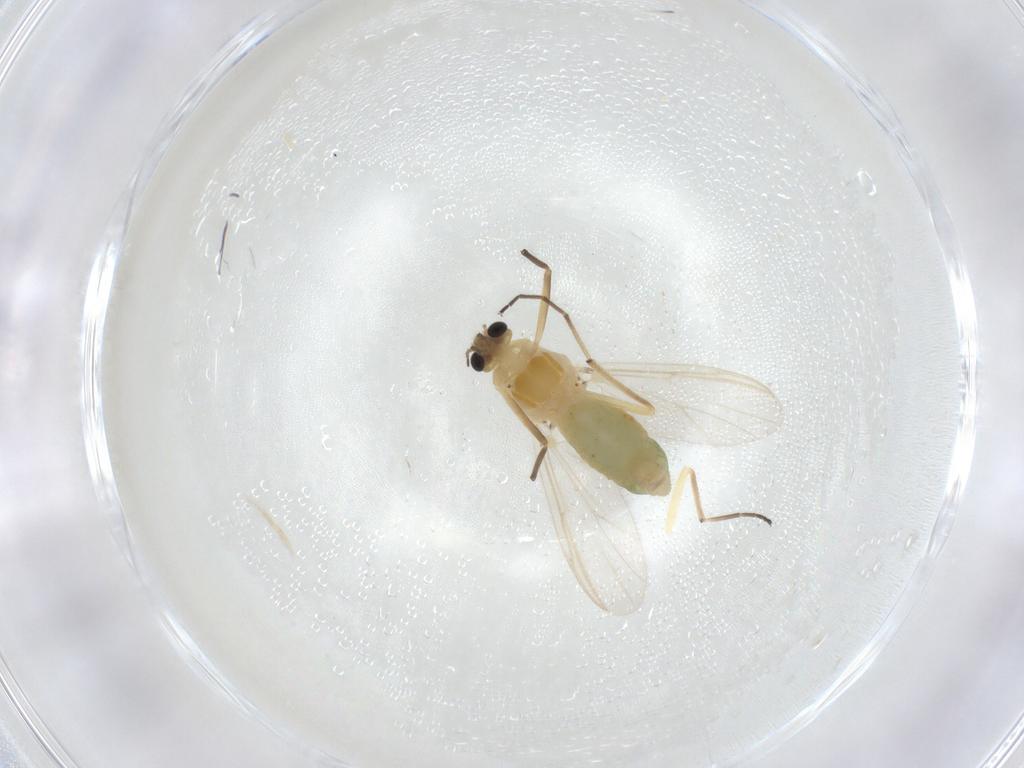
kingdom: Animalia
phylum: Arthropoda
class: Insecta
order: Diptera
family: Chironomidae
